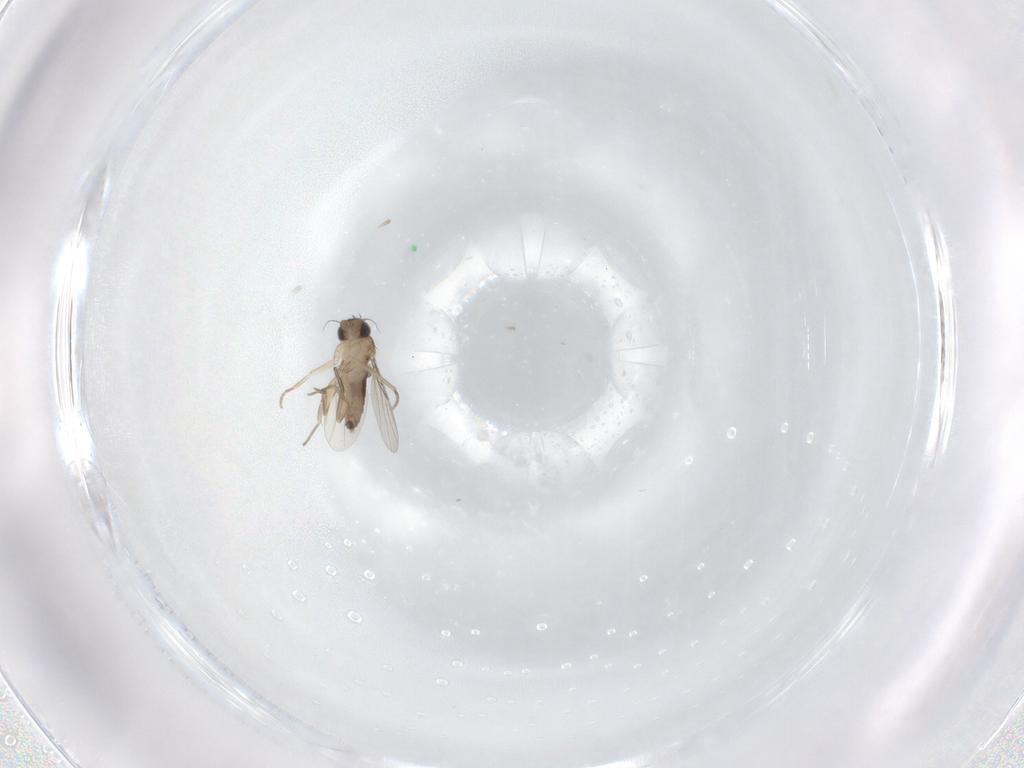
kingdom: Animalia
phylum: Arthropoda
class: Insecta
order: Diptera
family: Phoridae
